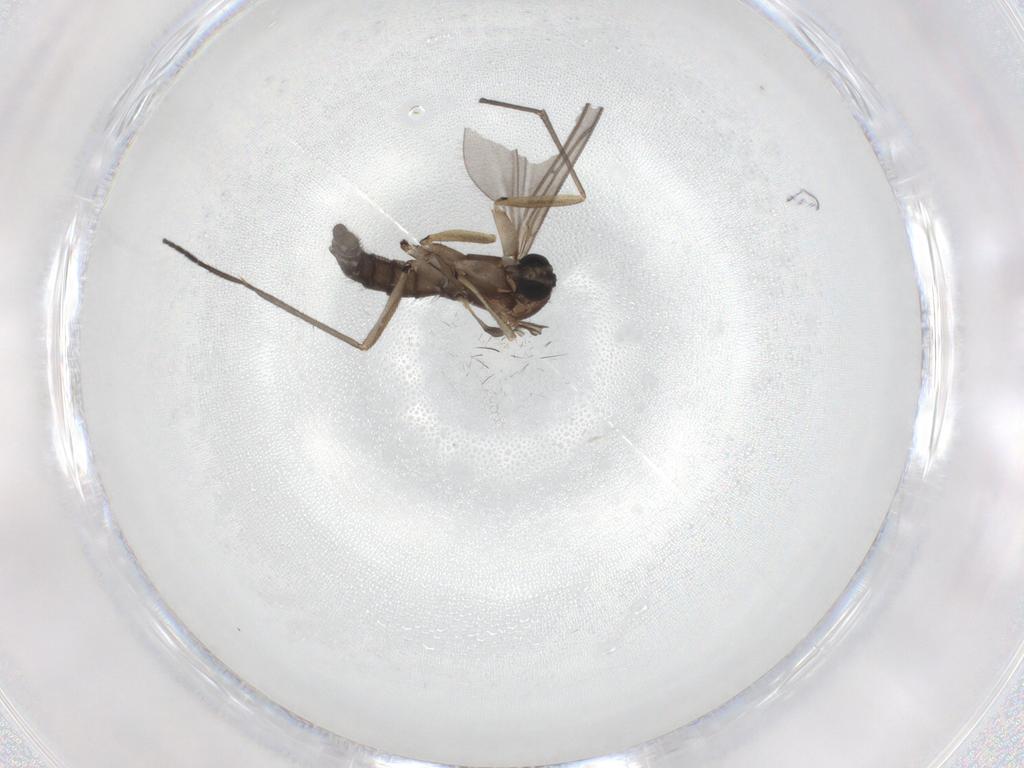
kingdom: Animalia
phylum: Arthropoda
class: Insecta
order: Diptera
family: Sciaridae
